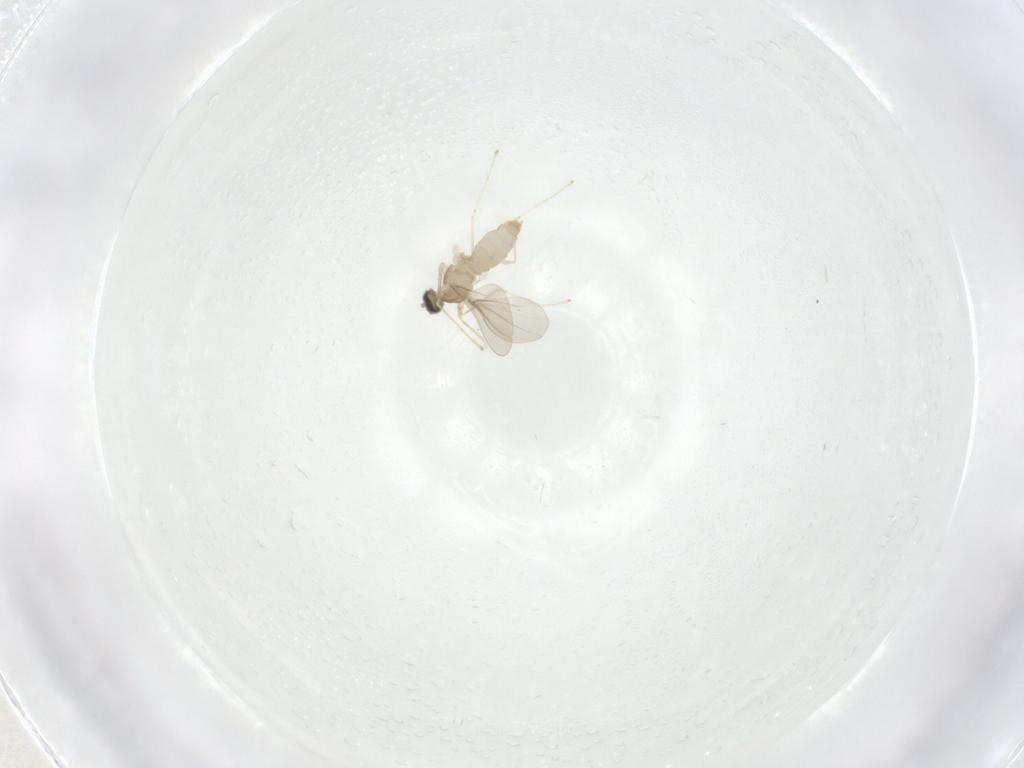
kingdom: Animalia
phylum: Arthropoda
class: Insecta
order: Diptera
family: Cecidomyiidae
